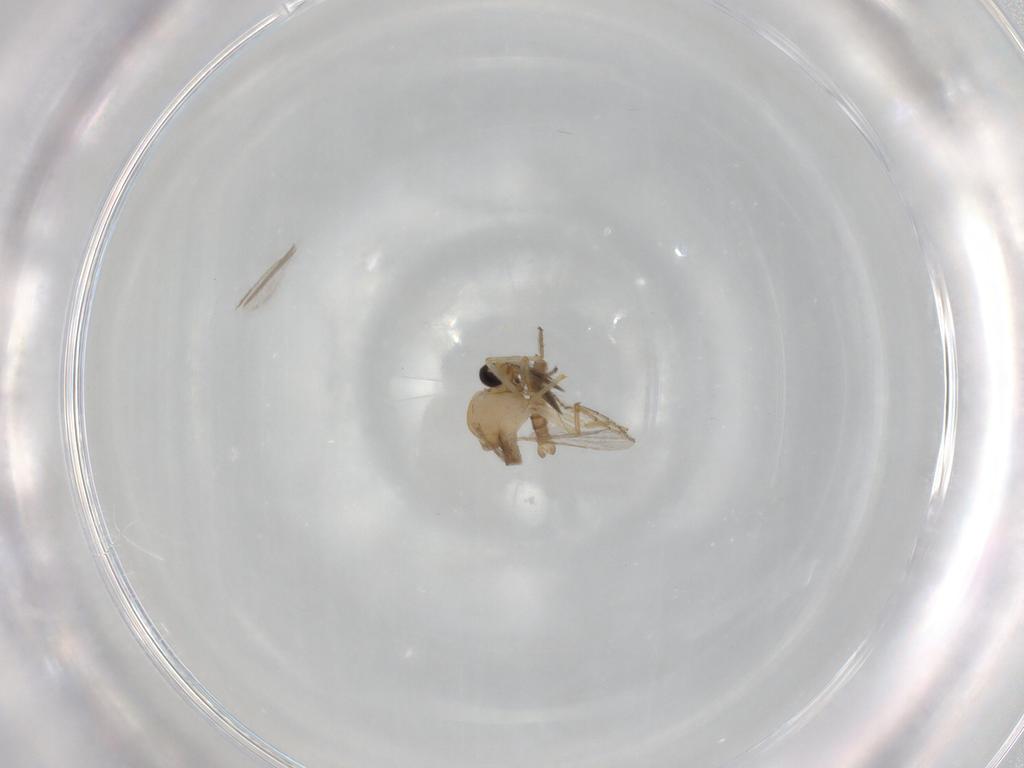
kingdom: Animalia
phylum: Arthropoda
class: Insecta
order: Diptera
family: Ceratopogonidae
